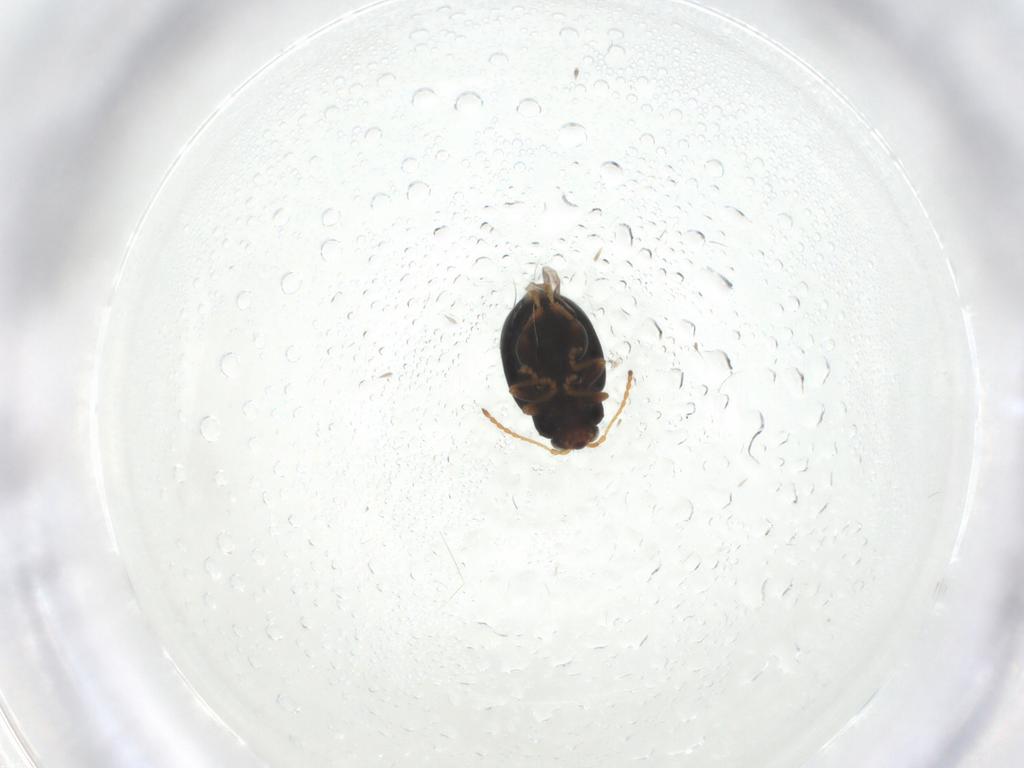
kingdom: Animalia
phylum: Arthropoda
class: Insecta
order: Coleoptera
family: Chrysomelidae
